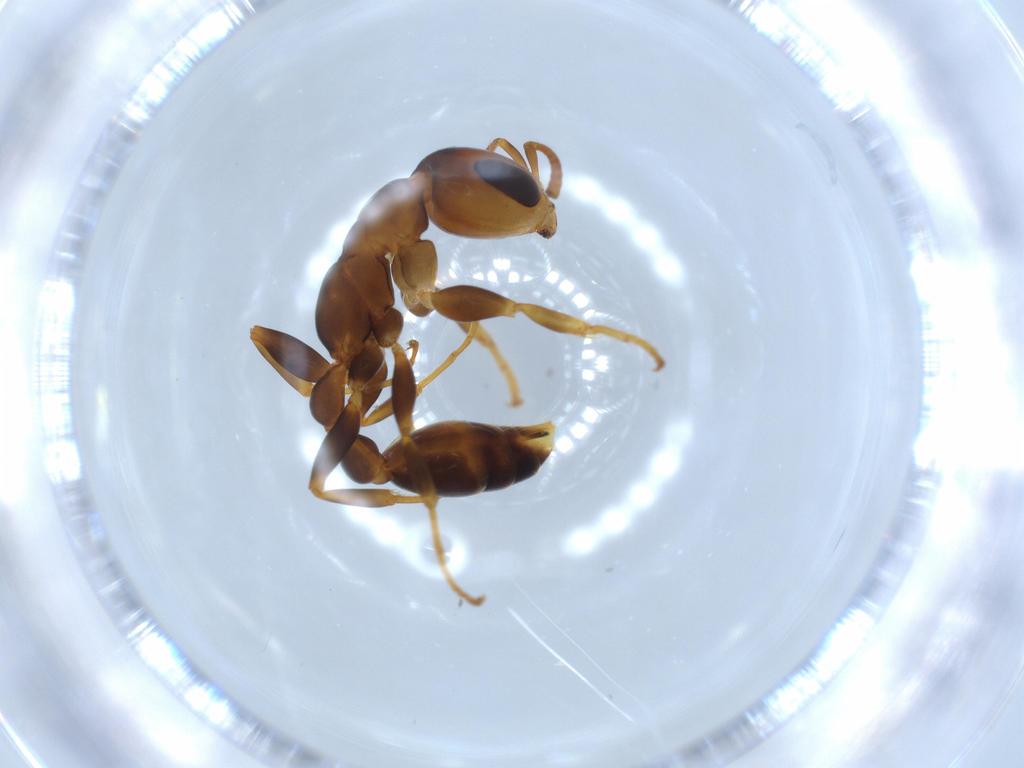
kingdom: Animalia
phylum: Arthropoda
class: Insecta
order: Hymenoptera
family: Formicidae
